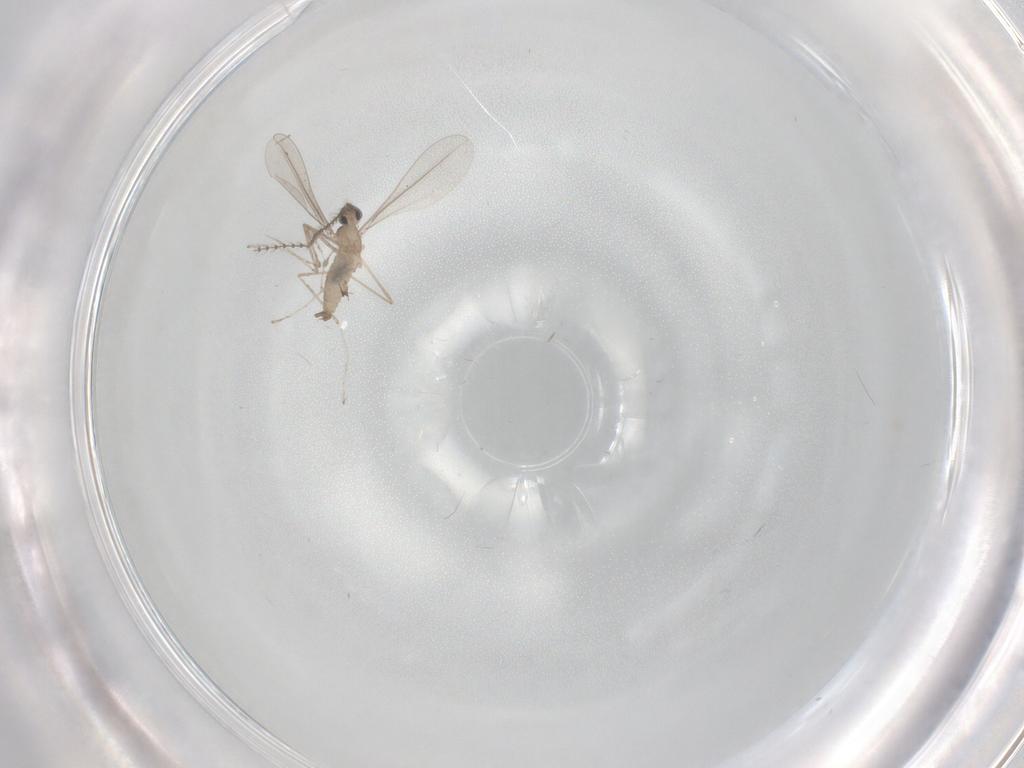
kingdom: Animalia
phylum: Arthropoda
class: Insecta
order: Diptera
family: Cecidomyiidae
